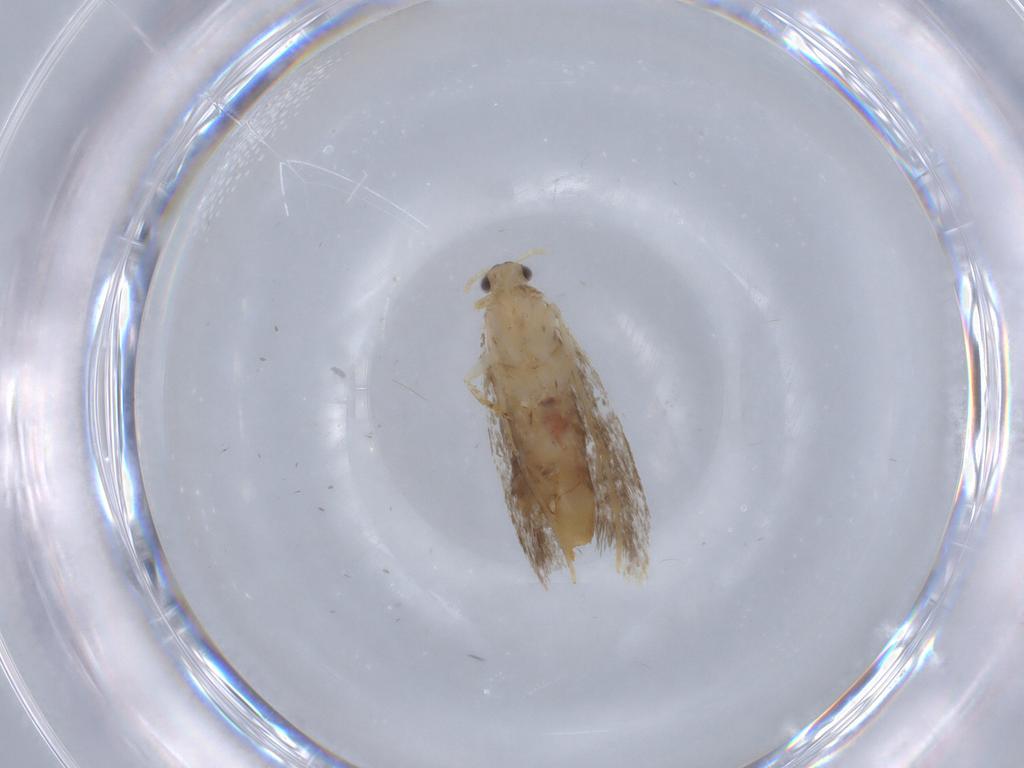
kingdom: Animalia
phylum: Arthropoda
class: Insecta
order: Lepidoptera
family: Dryadaulidae
